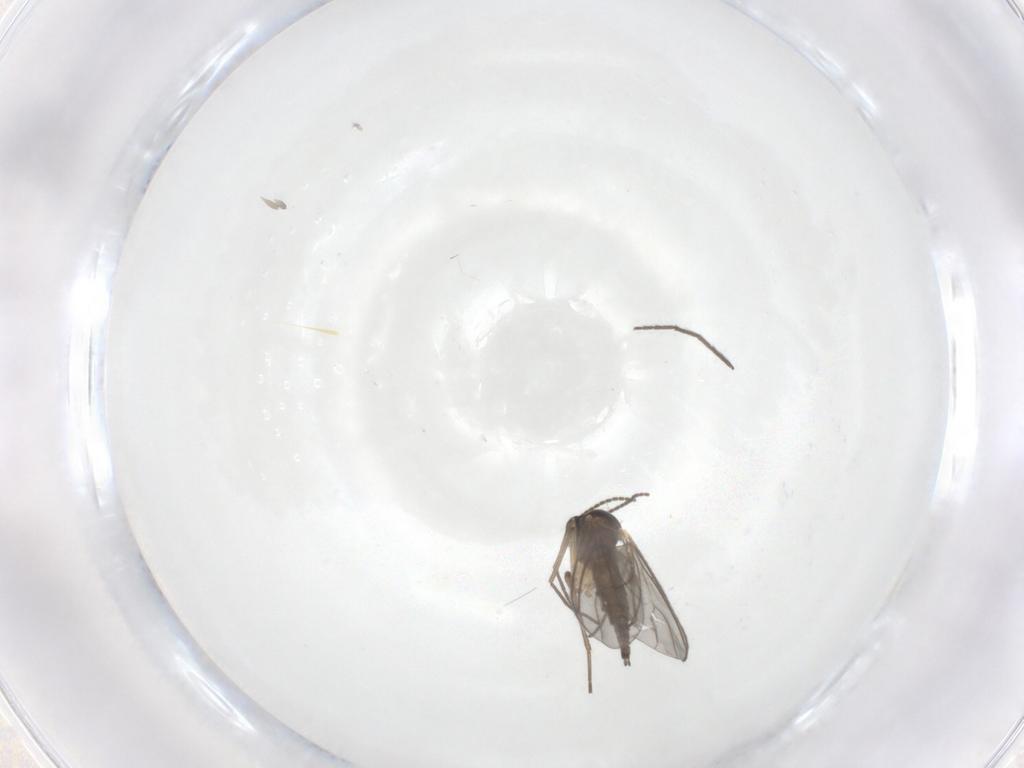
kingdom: Animalia
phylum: Arthropoda
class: Insecta
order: Diptera
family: Sciaridae
